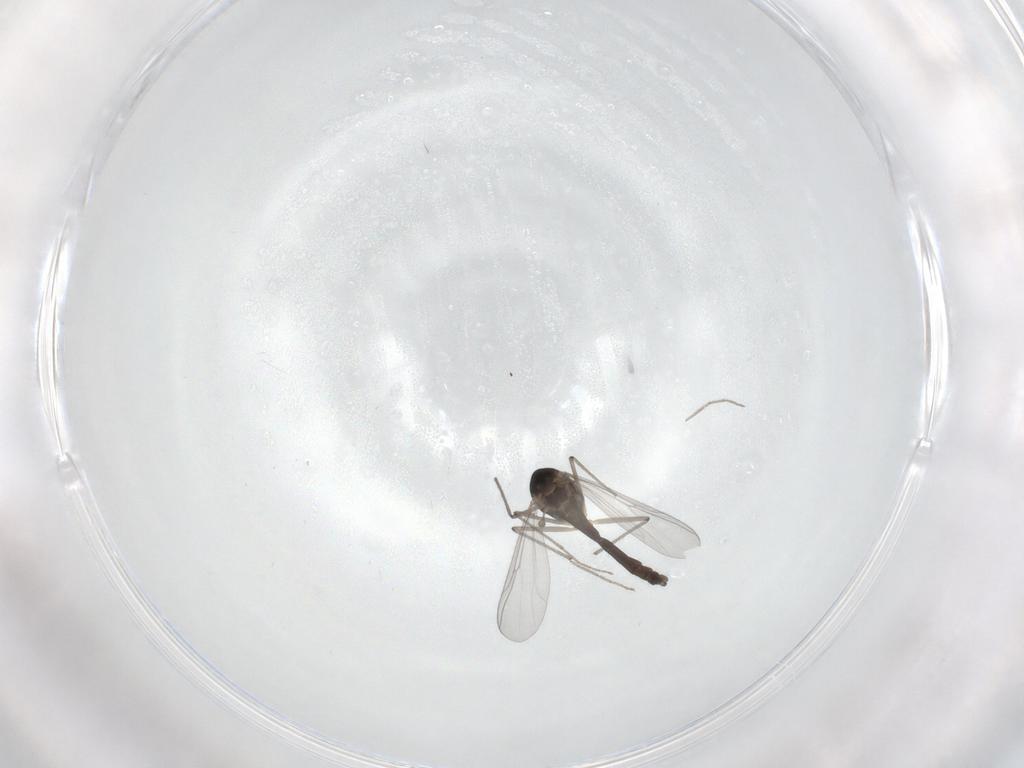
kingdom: Animalia
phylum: Arthropoda
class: Insecta
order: Diptera
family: Chironomidae
